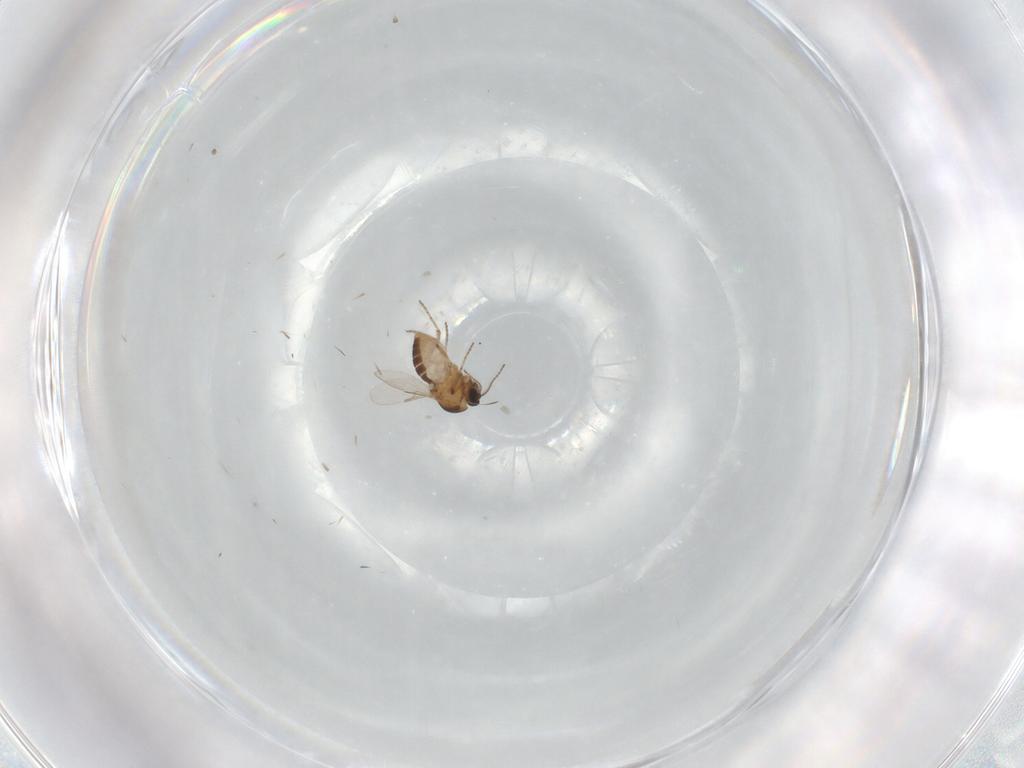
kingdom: Animalia
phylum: Arthropoda
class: Insecta
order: Diptera
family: Ceratopogonidae
